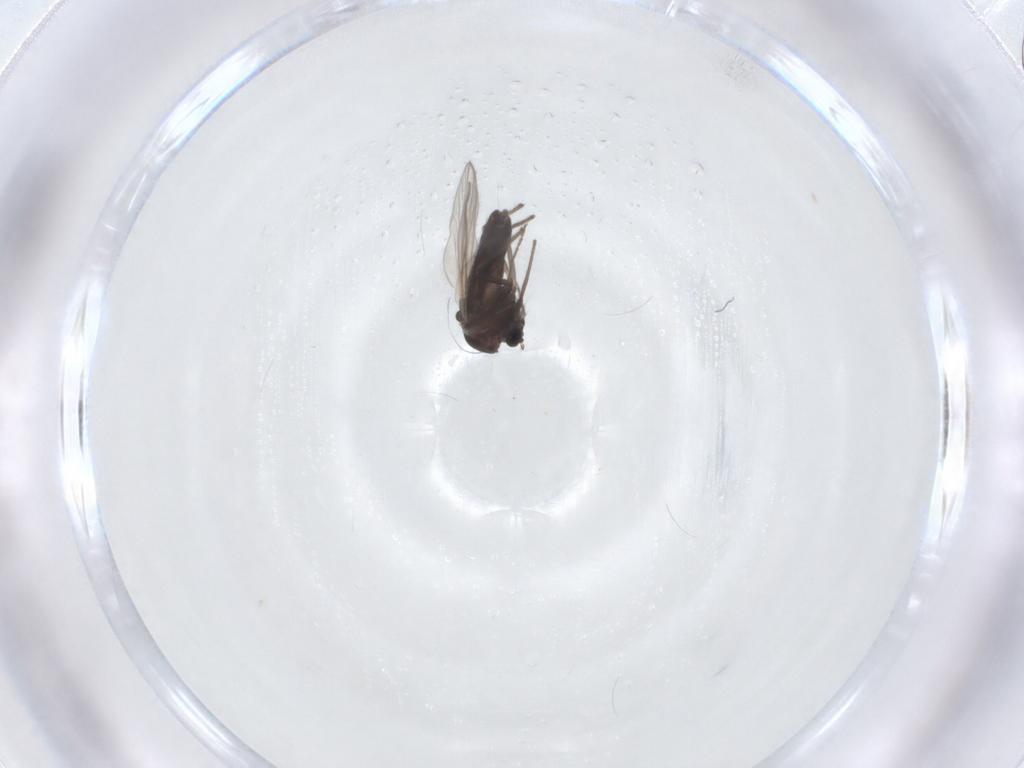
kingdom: Animalia
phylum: Arthropoda
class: Insecta
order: Diptera
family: Chironomidae
